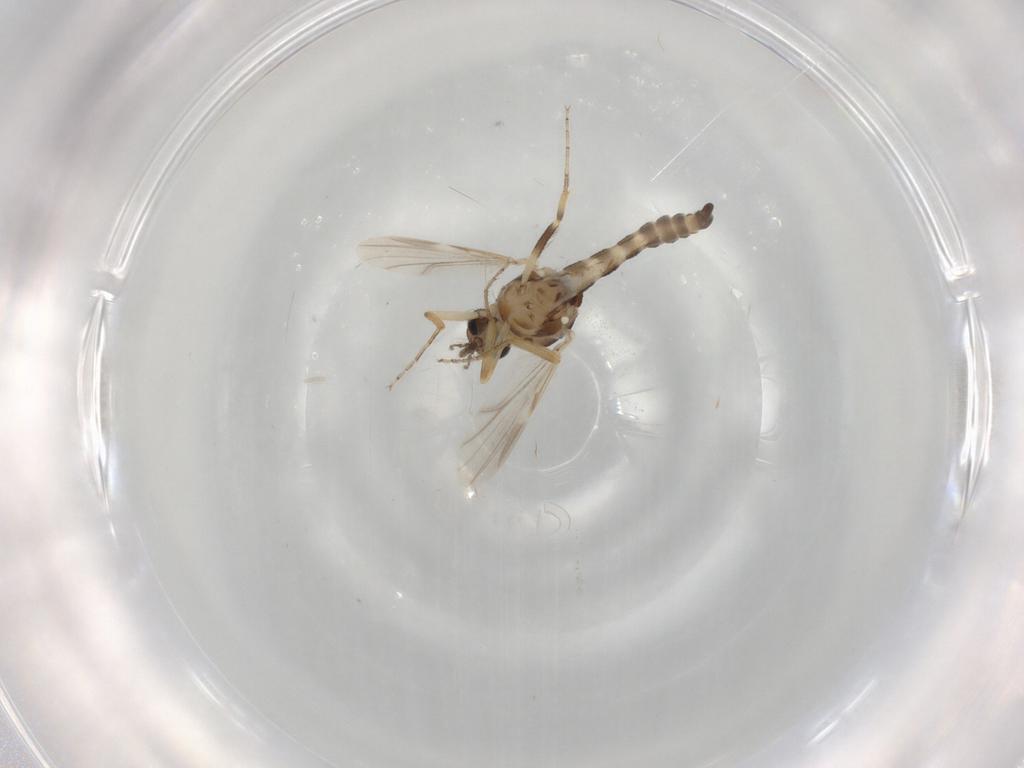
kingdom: Animalia
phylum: Arthropoda
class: Insecta
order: Diptera
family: Ceratopogonidae
